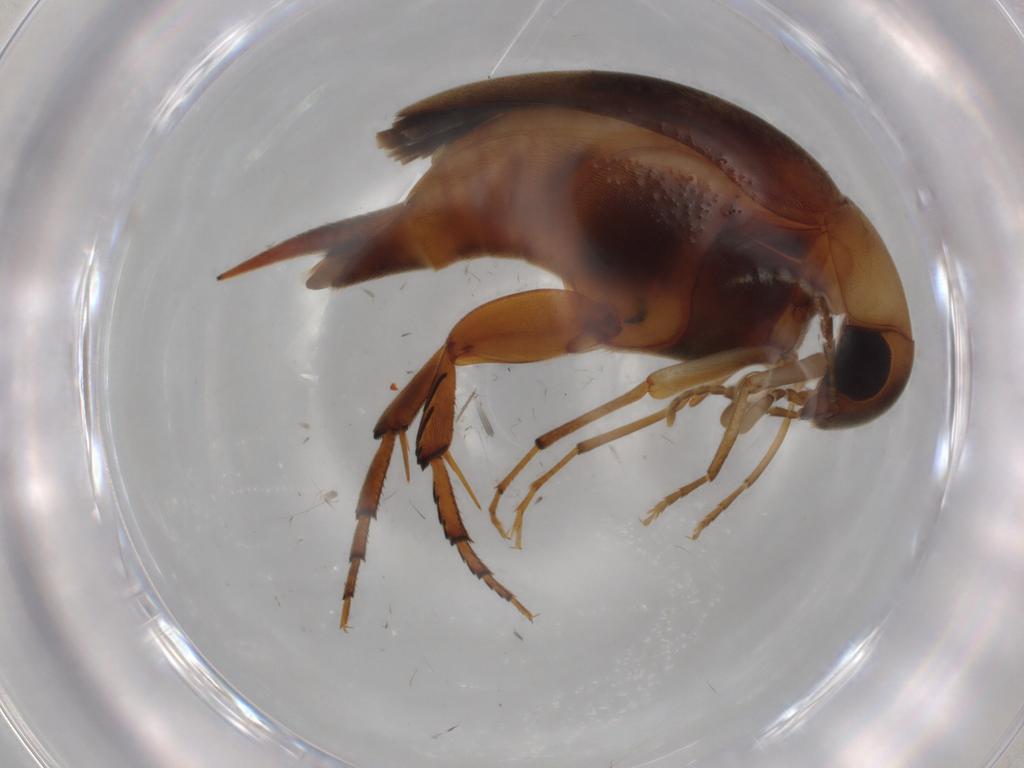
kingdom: Animalia
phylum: Arthropoda
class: Insecta
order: Coleoptera
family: Mordellidae
